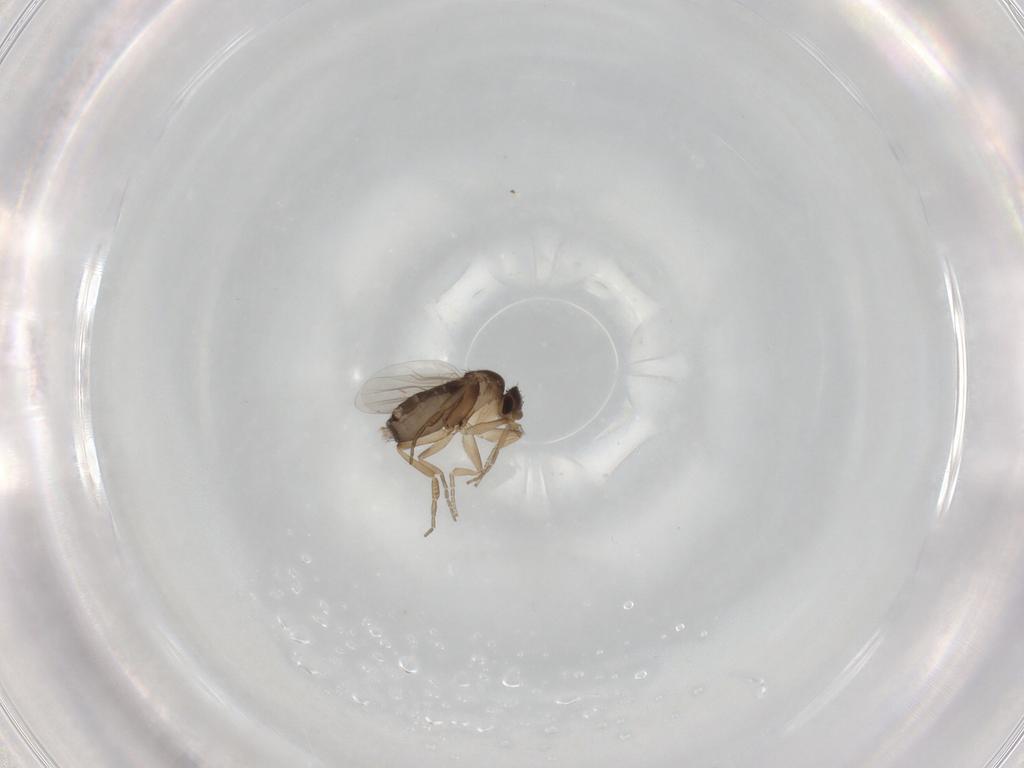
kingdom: Animalia
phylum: Arthropoda
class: Insecta
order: Diptera
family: Phoridae
